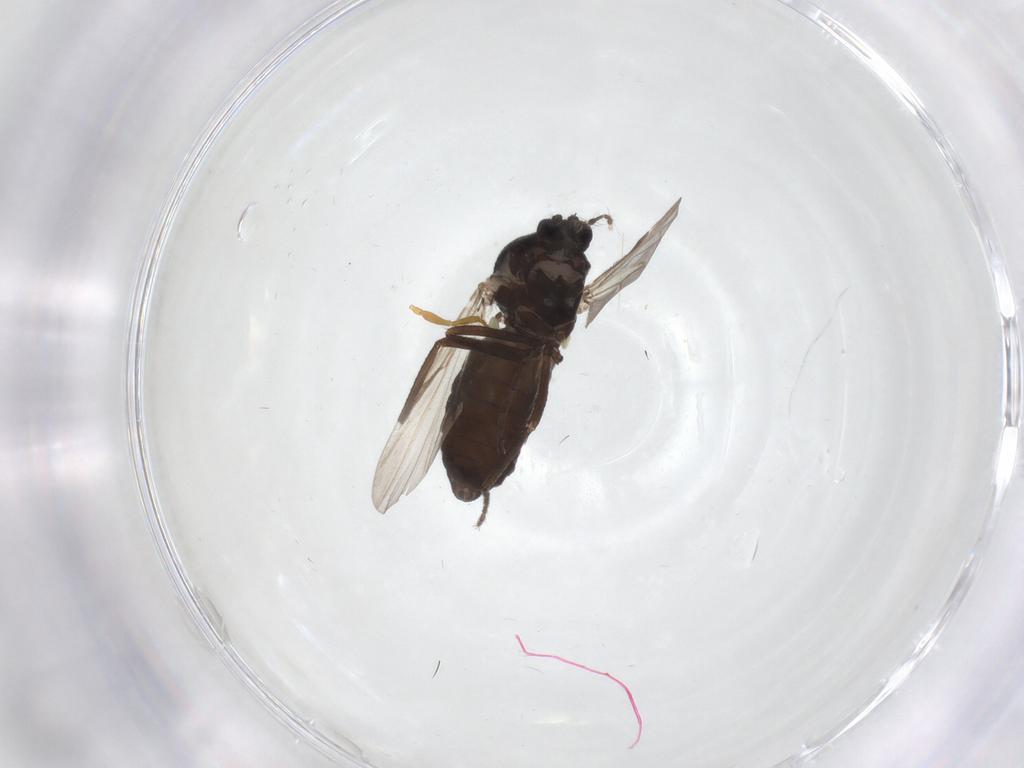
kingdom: Animalia
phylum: Arthropoda
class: Insecta
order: Diptera
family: Ceratopogonidae
